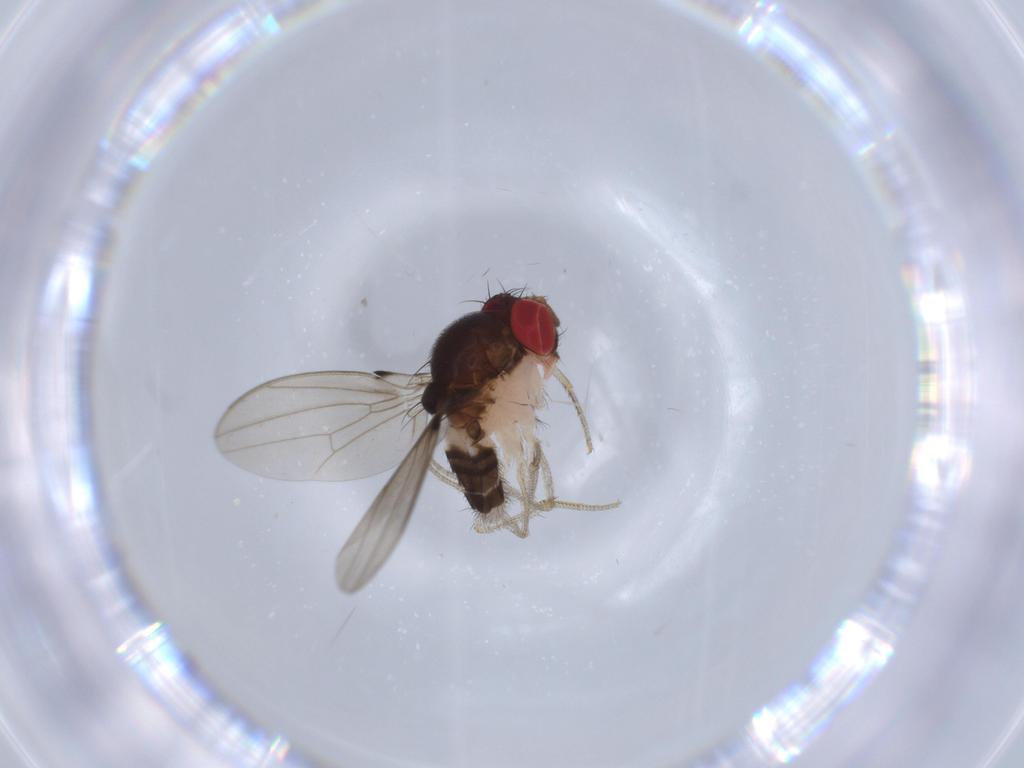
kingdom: Animalia
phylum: Arthropoda
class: Insecta
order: Diptera
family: Sepsidae
